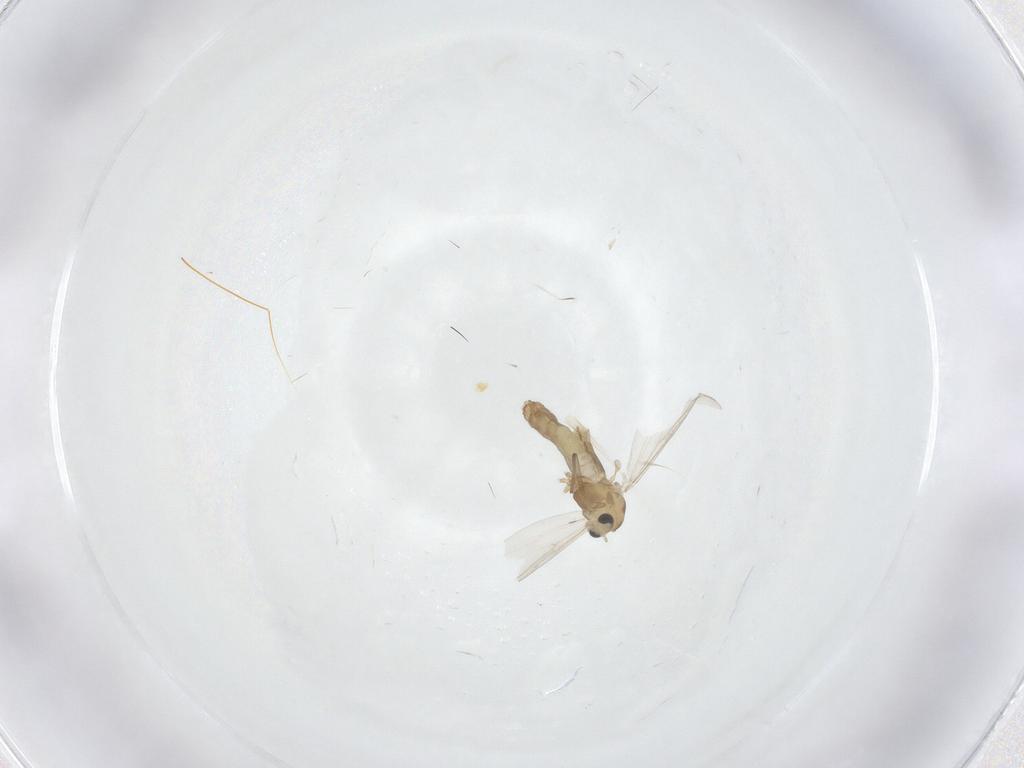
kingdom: Animalia
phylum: Arthropoda
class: Insecta
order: Diptera
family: Chironomidae
